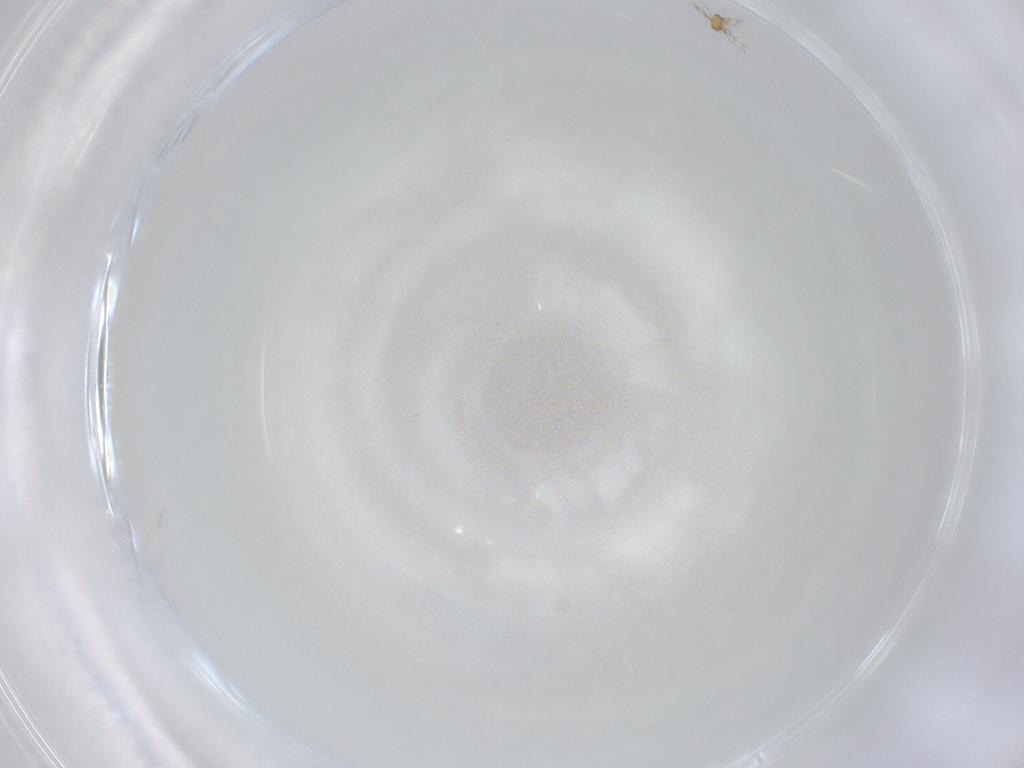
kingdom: Animalia
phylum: Arthropoda
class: Insecta
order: Hymenoptera
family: Trichogrammatidae
